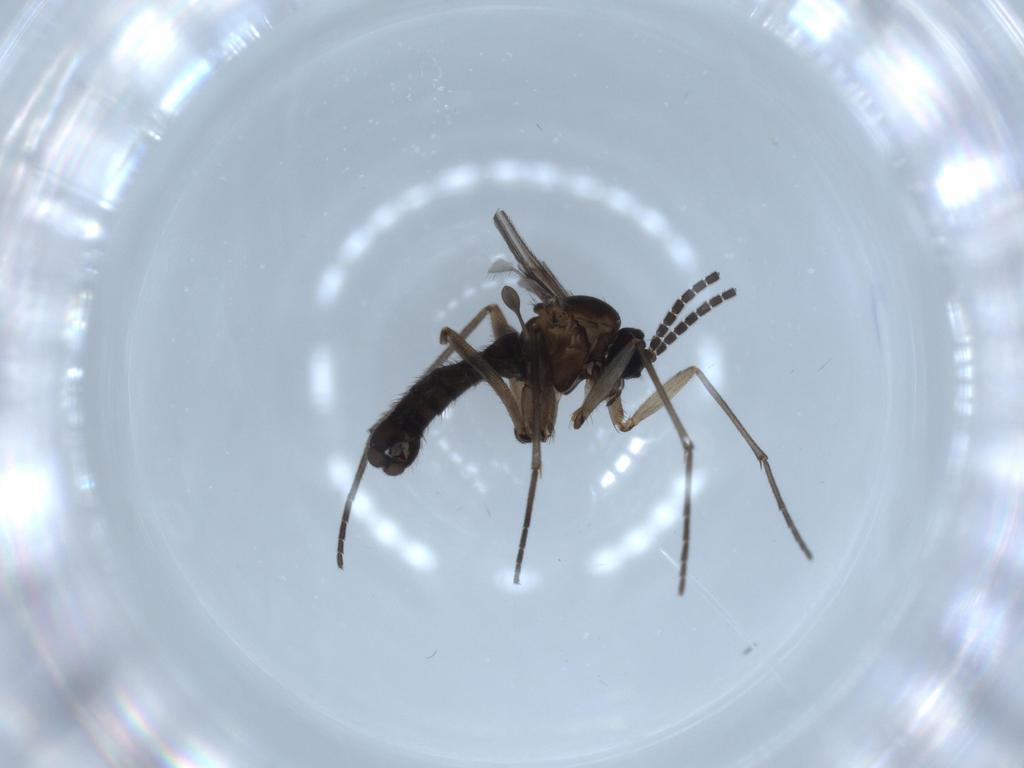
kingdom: Animalia
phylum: Arthropoda
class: Insecta
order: Diptera
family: Sciaridae
